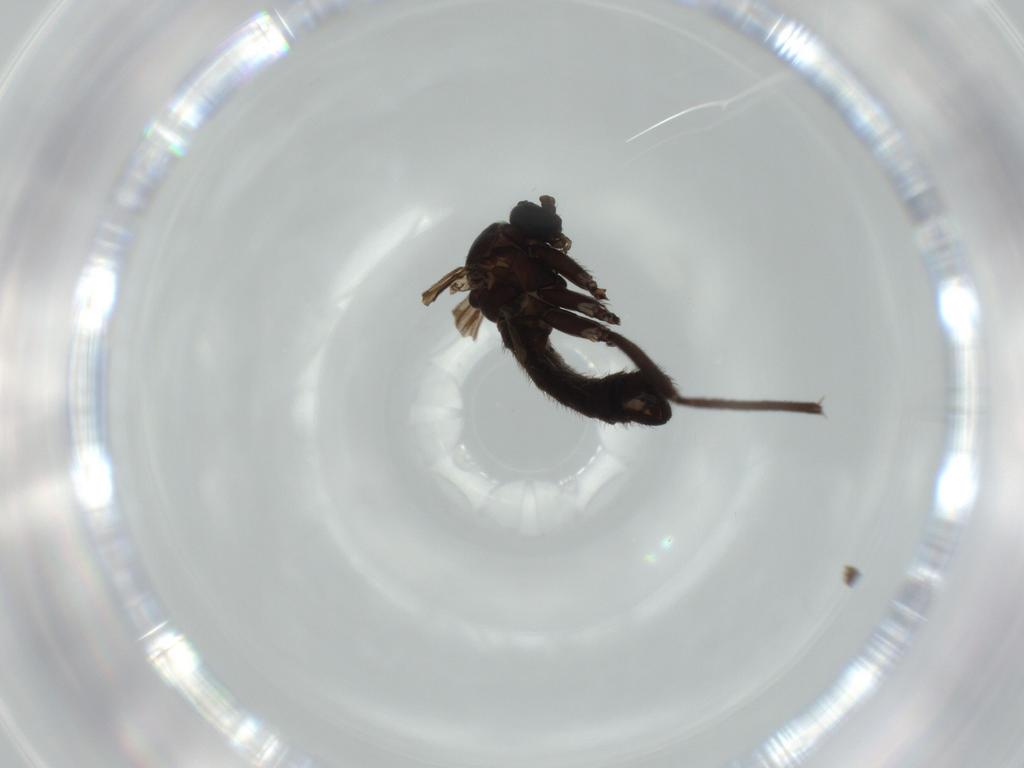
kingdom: Animalia
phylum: Arthropoda
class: Insecta
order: Diptera
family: Sciaridae
